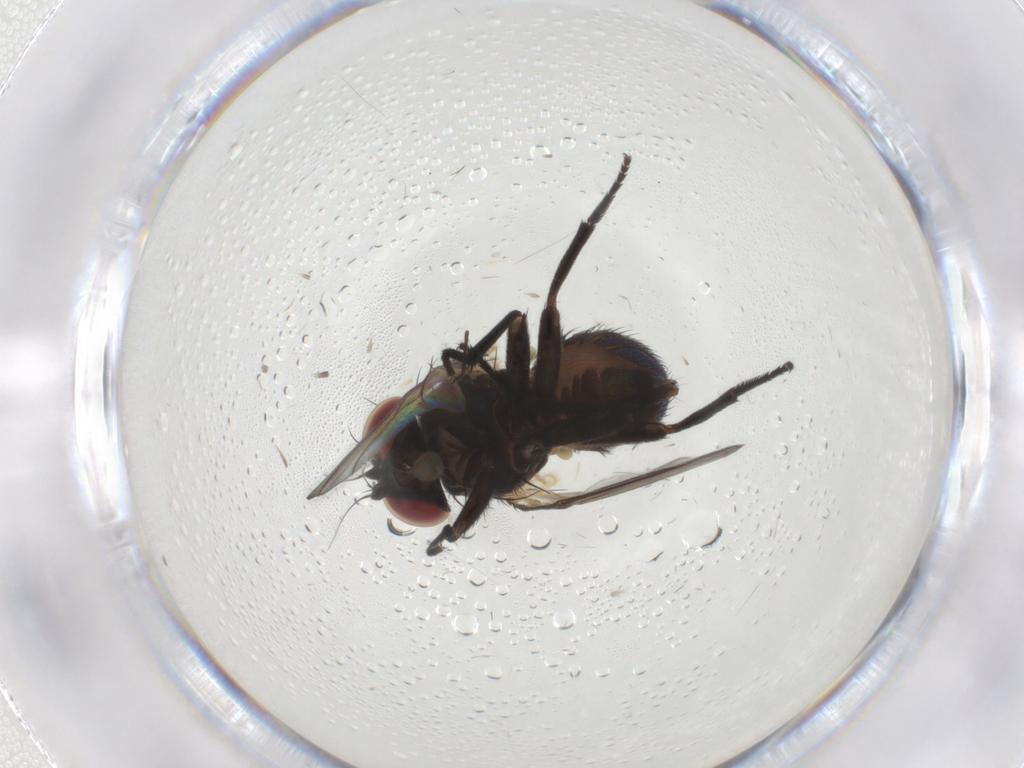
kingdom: Animalia
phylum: Arthropoda
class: Insecta
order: Diptera
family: Agromyzidae
